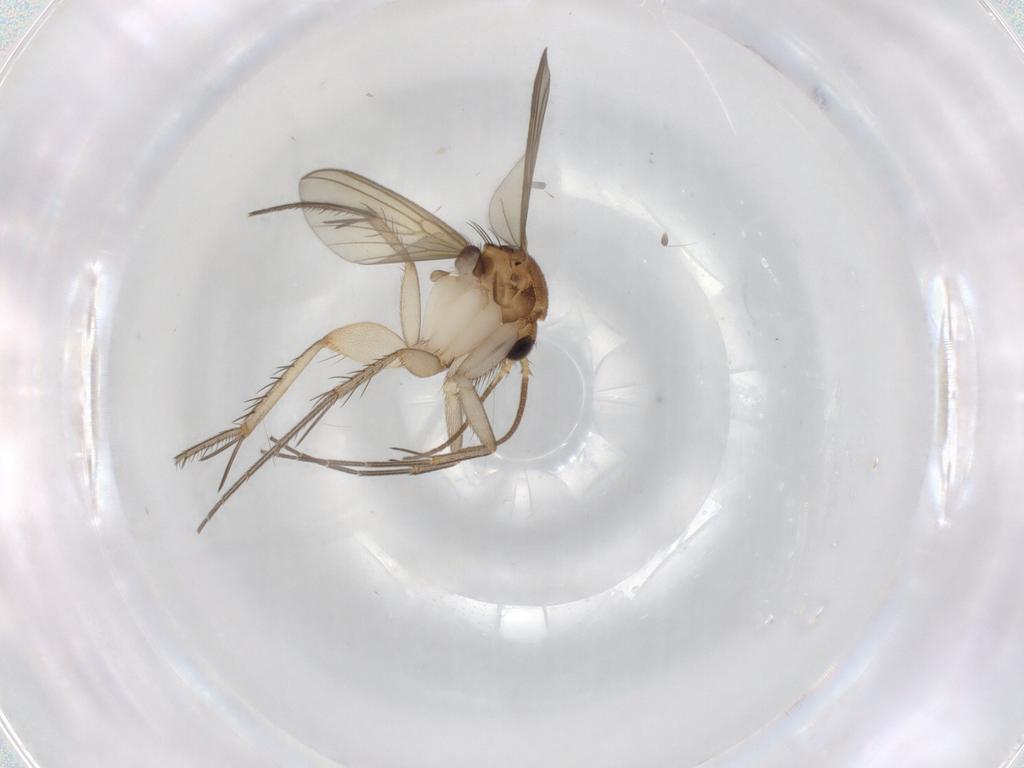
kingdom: Animalia
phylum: Arthropoda
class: Insecta
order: Diptera
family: Mycetophilidae
